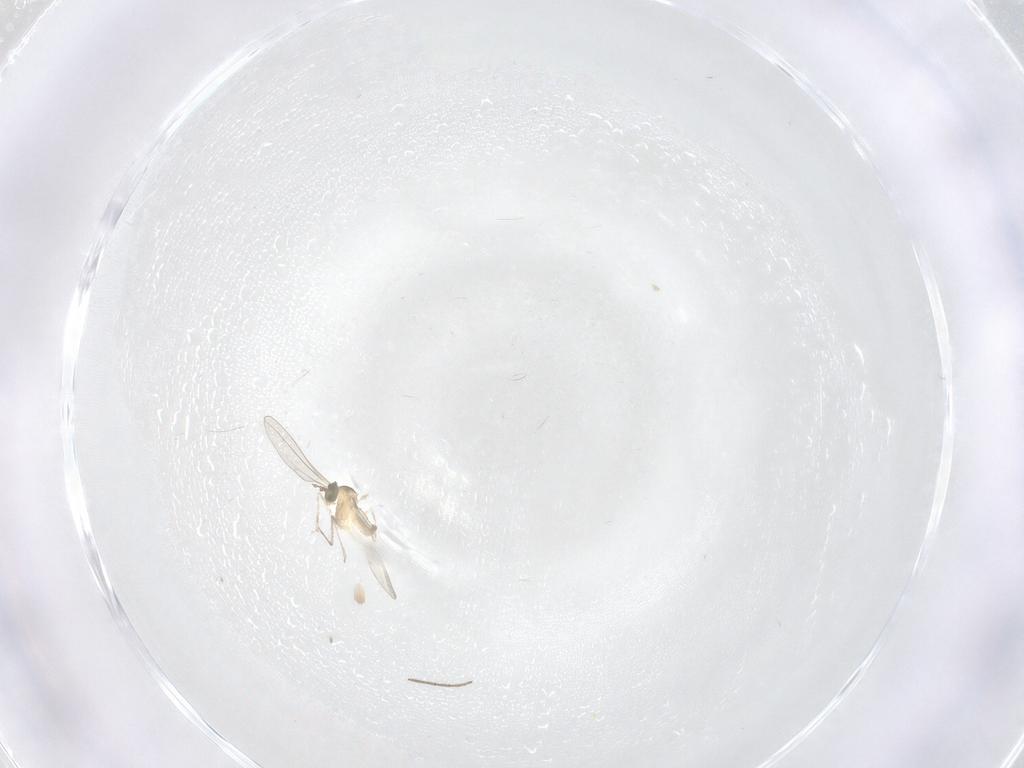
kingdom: Animalia
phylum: Arthropoda
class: Insecta
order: Diptera
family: Cecidomyiidae
